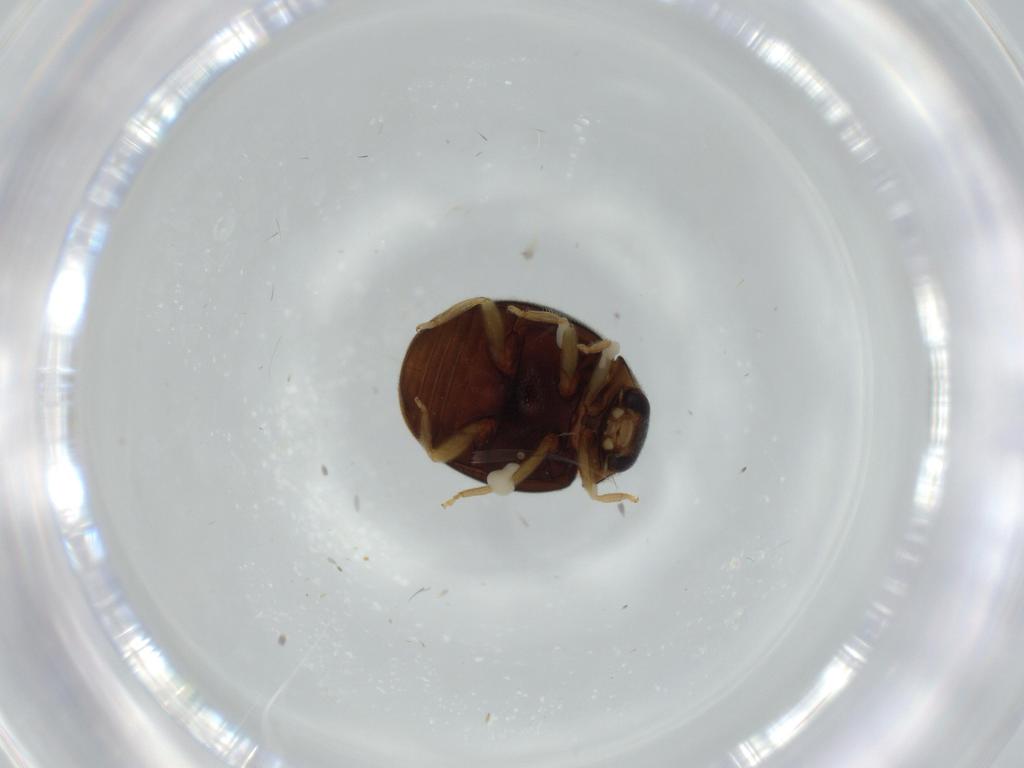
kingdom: Animalia
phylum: Arthropoda
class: Insecta
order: Coleoptera
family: Coccinellidae
